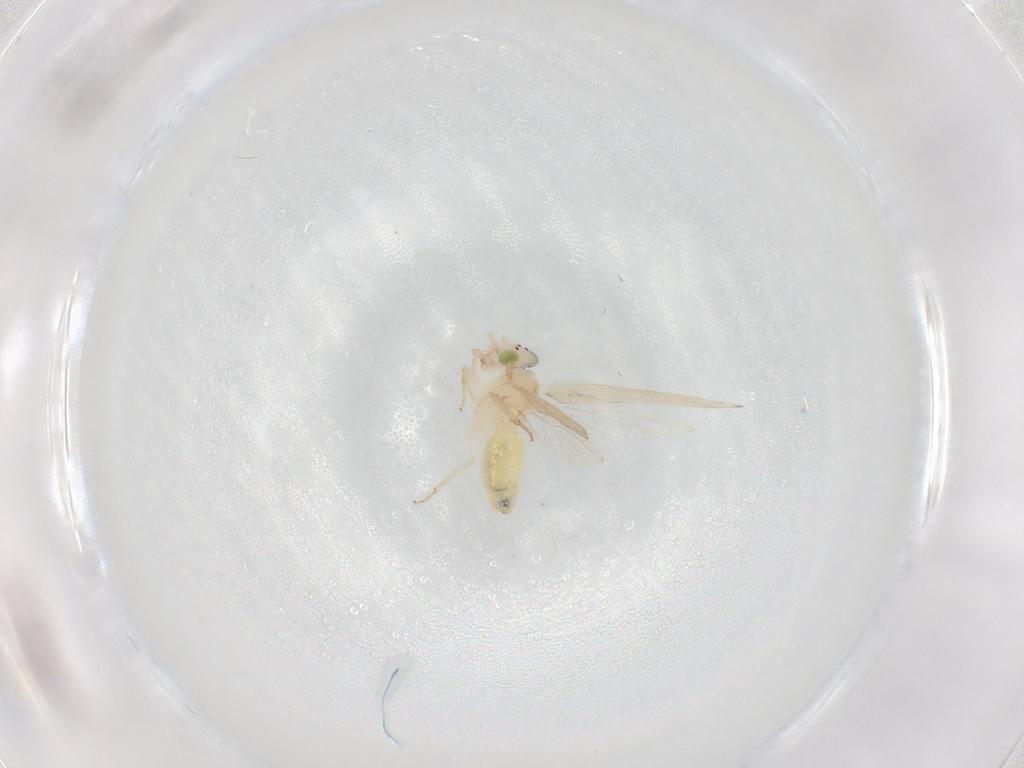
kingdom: Animalia
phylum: Arthropoda
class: Insecta
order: Psocodea
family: Lepidopsocidae
